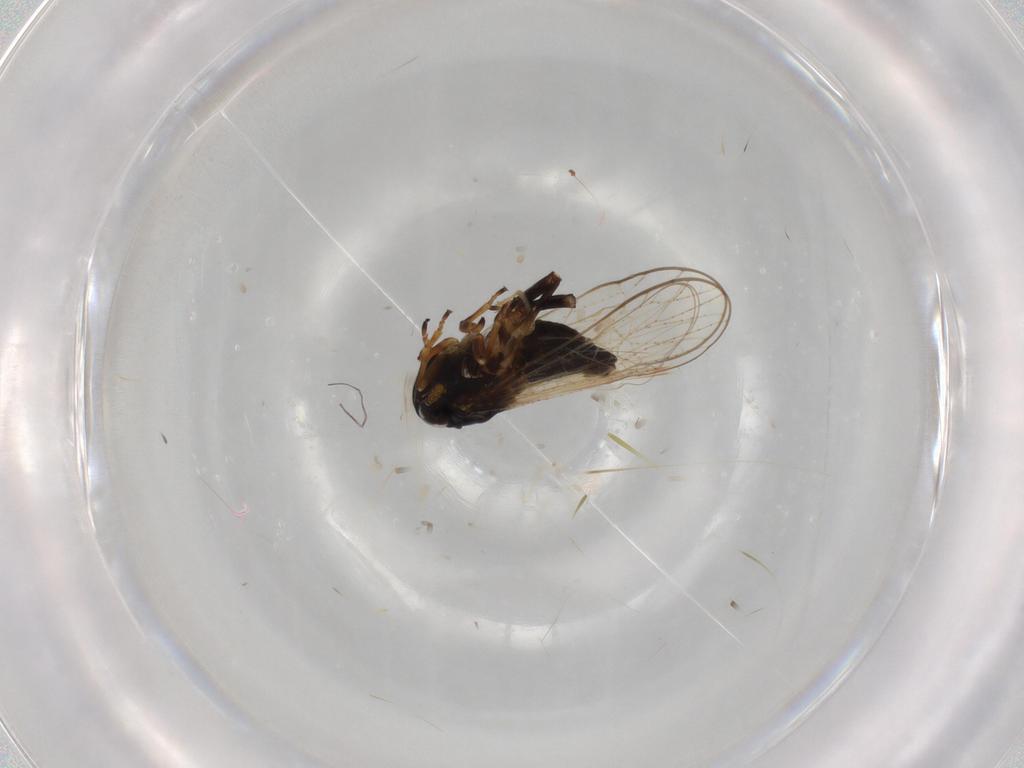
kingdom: Animalia
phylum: Arthropoda
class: Insecta
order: Hemiptera
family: Delphacidae
